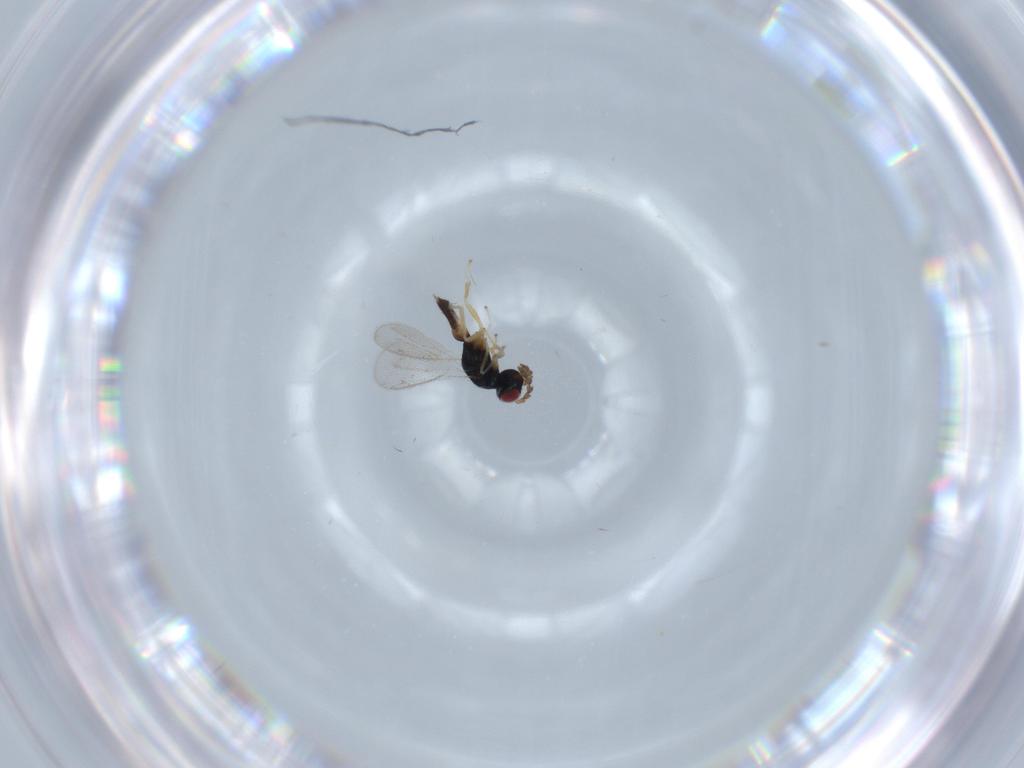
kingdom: Animalia
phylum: Arthropoda
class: Insecta
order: Hymenoptera
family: Eulophidae
